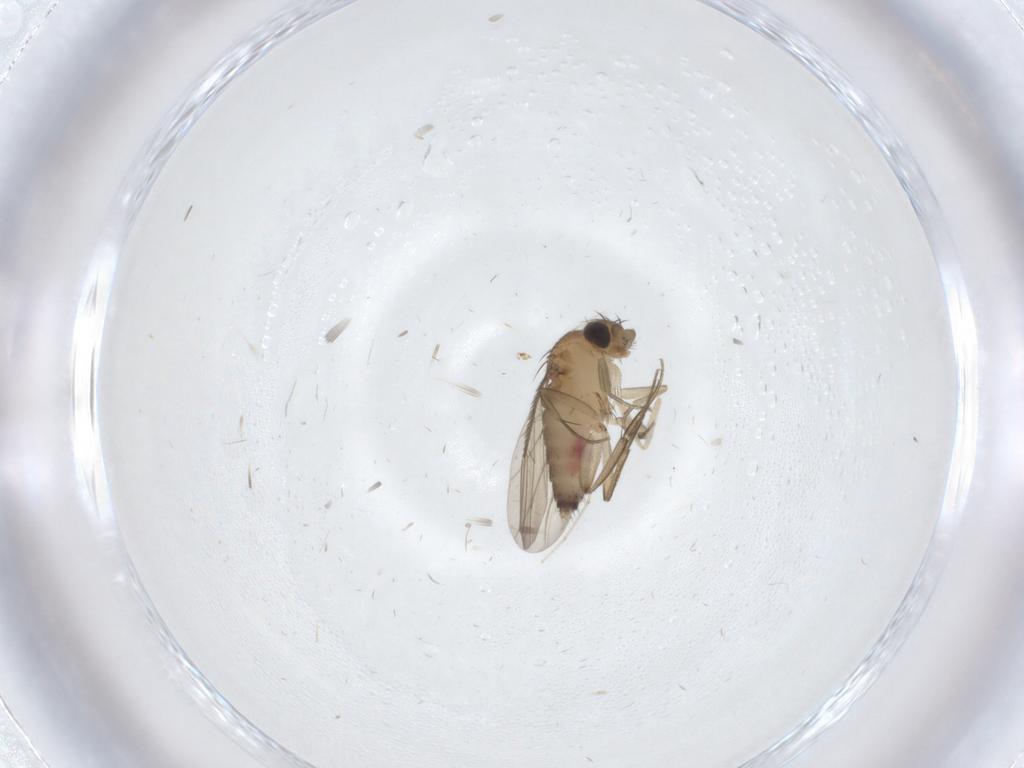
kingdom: Animalia
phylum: Arthropoda
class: Insecta
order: Diptera
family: Phoridae
